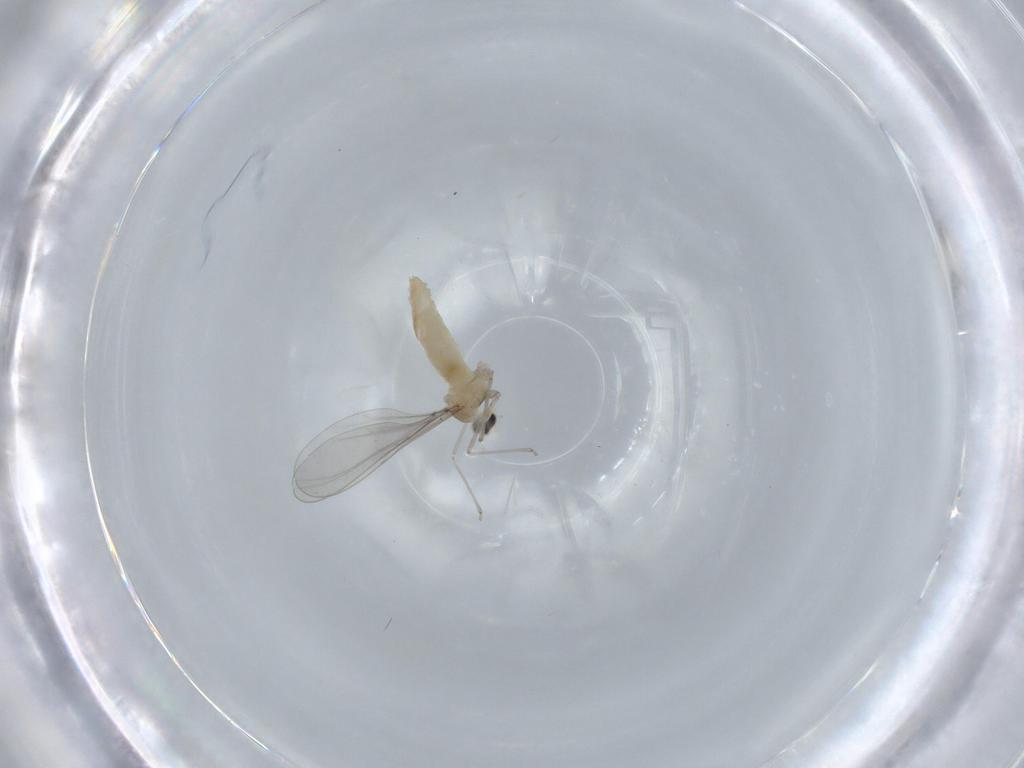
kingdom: Animalia
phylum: Arthropoda
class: Insecta
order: Diptera
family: Cecidomyiidae
